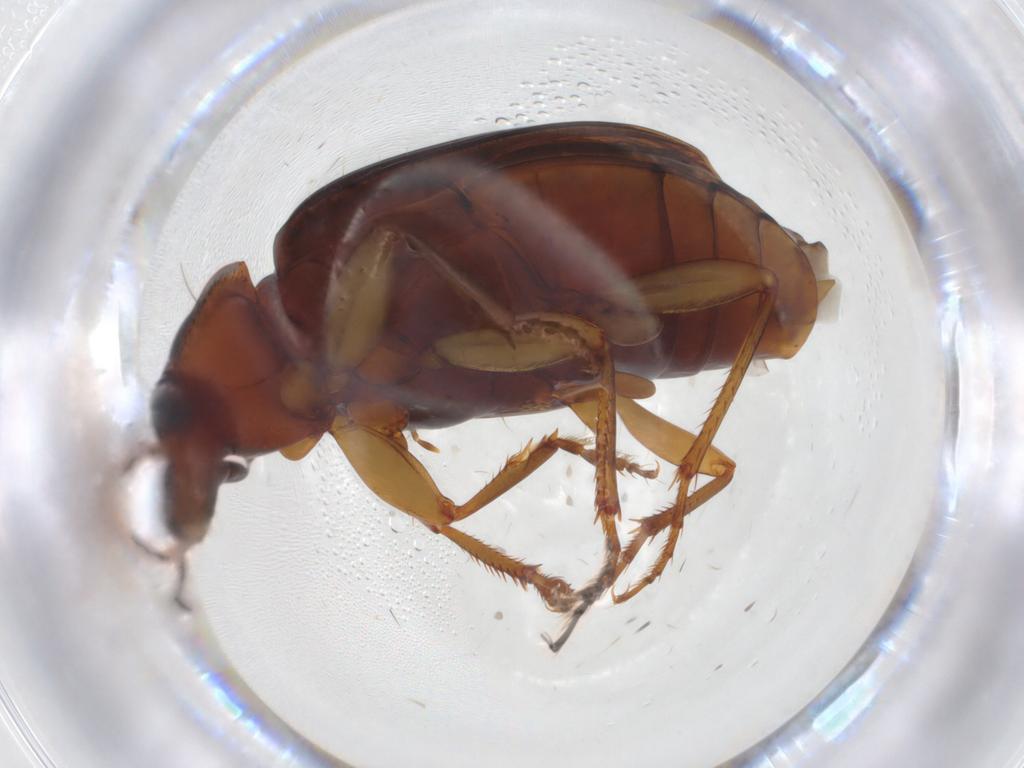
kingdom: Animalia
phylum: Arthropoda
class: Insecta
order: Coleoptera
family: Carabidae
